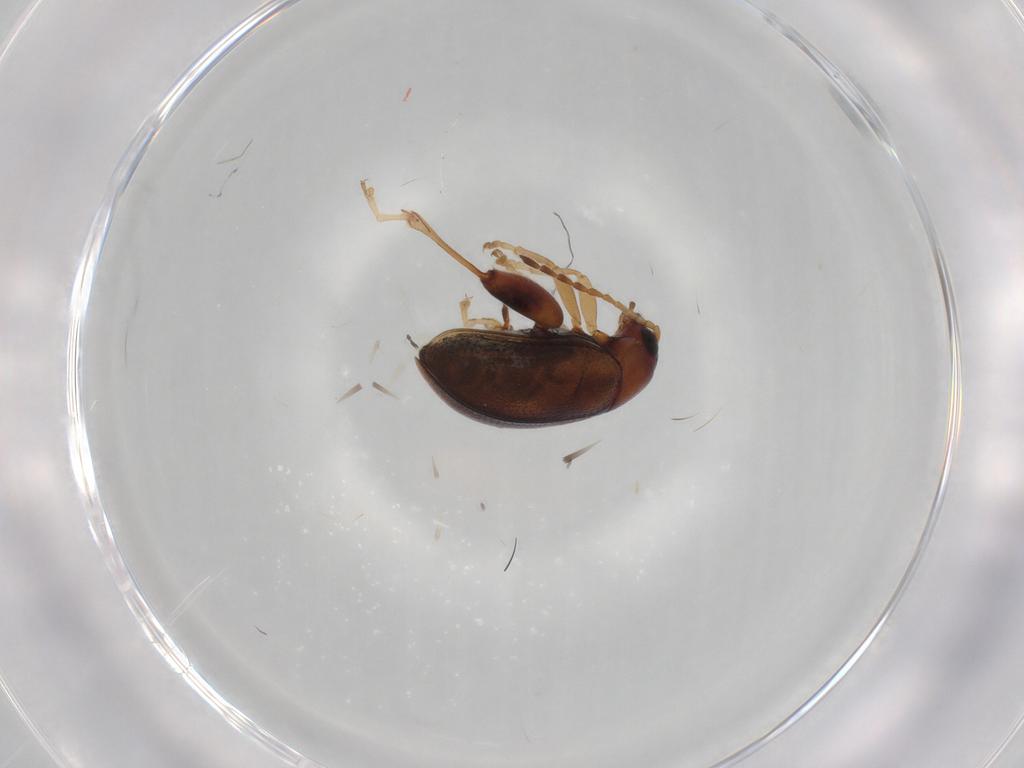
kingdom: Animalia
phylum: Arthropoda
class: Insecta
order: Coleoptera
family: Chrysomelidae
